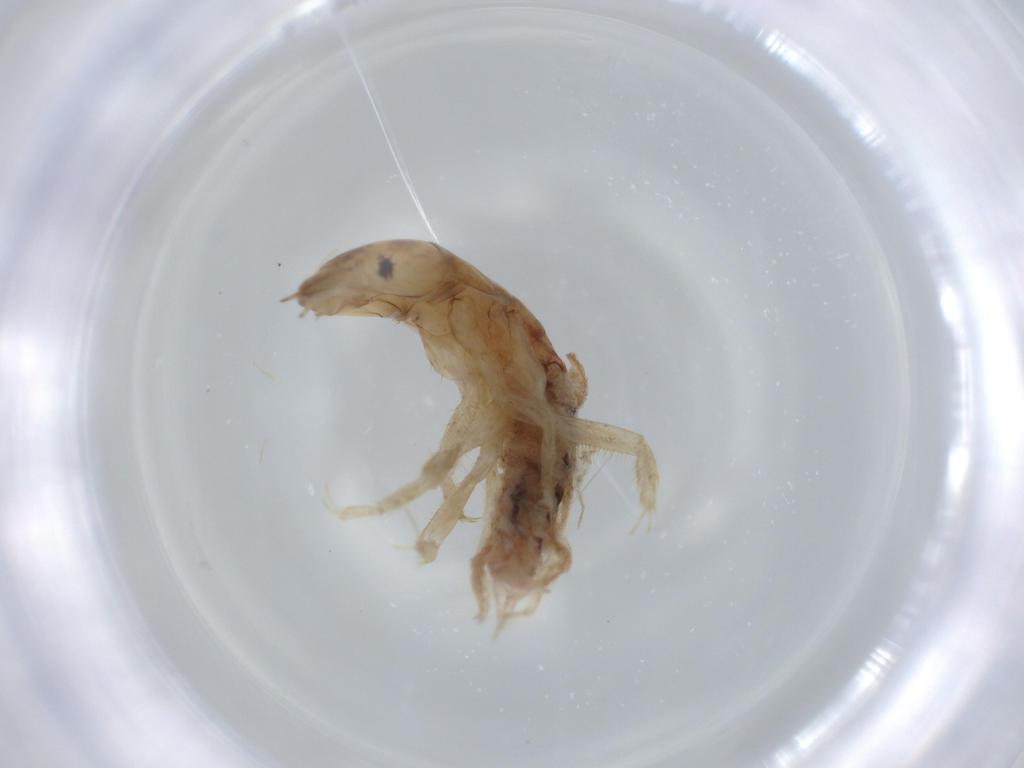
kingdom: Animalia
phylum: Arthropoda
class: Insecta
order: Megaloptera
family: Sialidae
